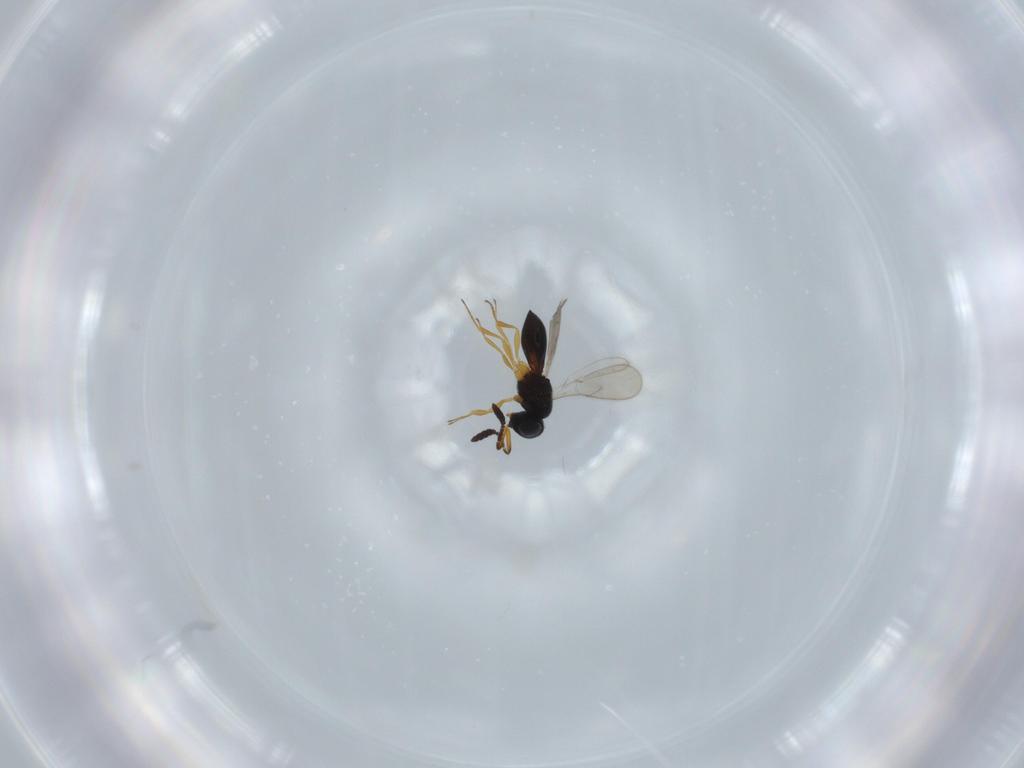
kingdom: Animalia
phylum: Arthropoda
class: Insecta
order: Hymenoptera
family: Scelionidae
